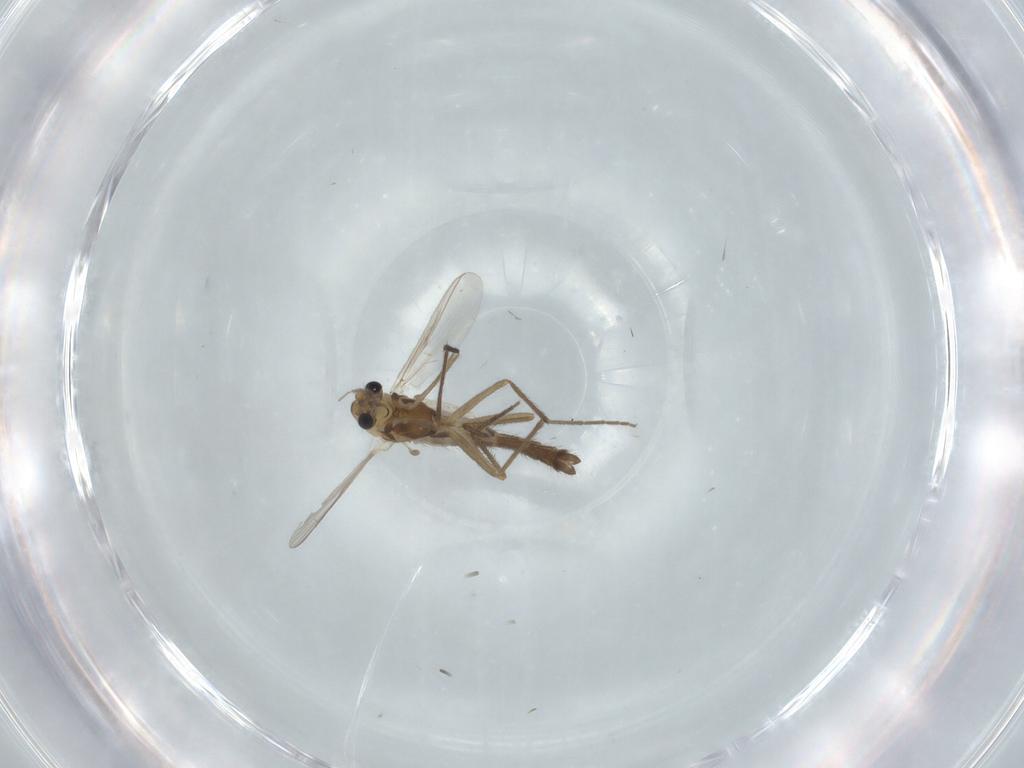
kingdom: Animalia
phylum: Arthropoda
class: Insecta
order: Diptera
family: Chironomidae
